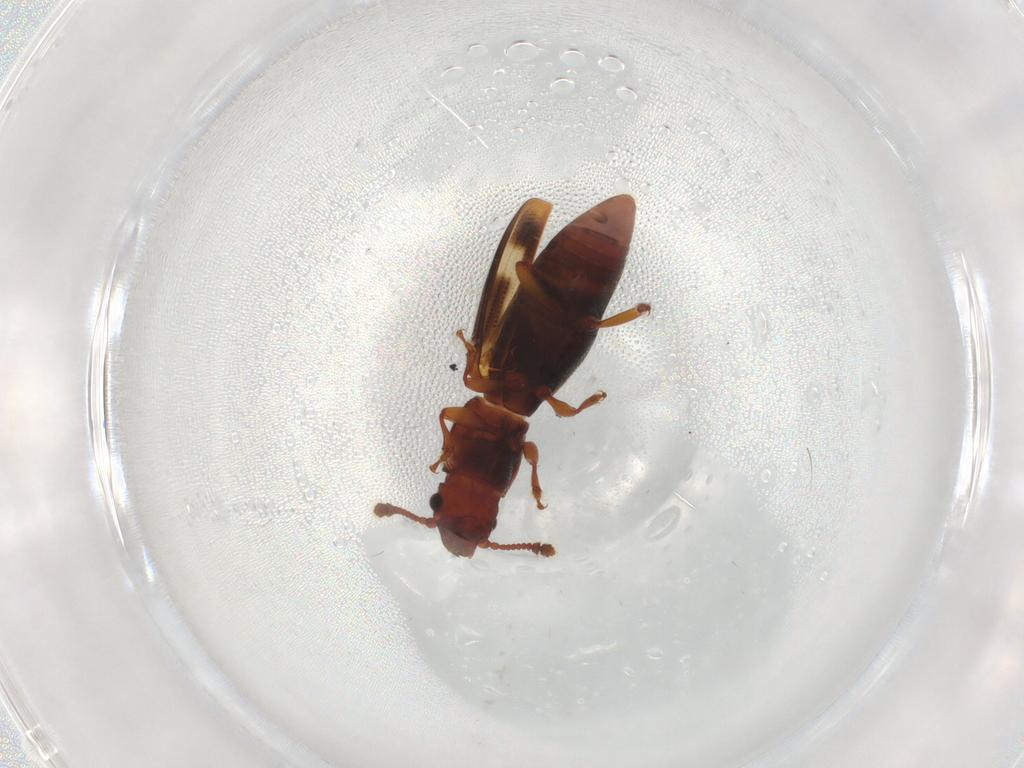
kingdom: Animalia
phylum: Arthropoda
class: Insecta
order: Coleoptera
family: Monotomidae
